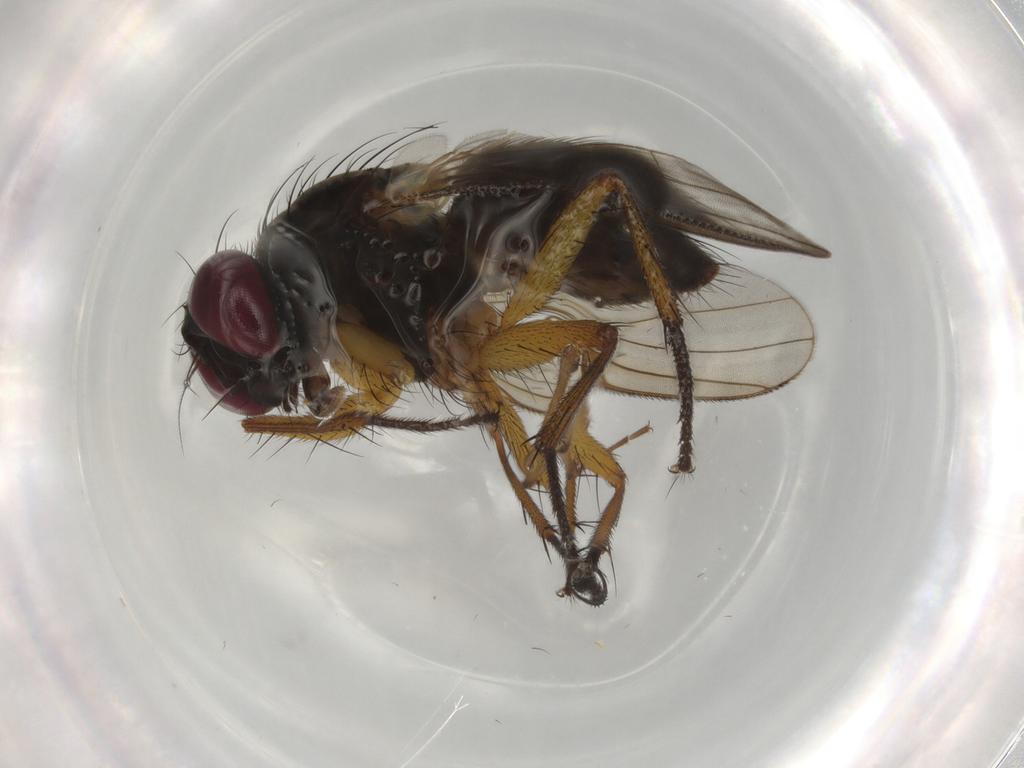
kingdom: Animalia
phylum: Arthropoda
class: Insecta
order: Diptera
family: Muscidae
